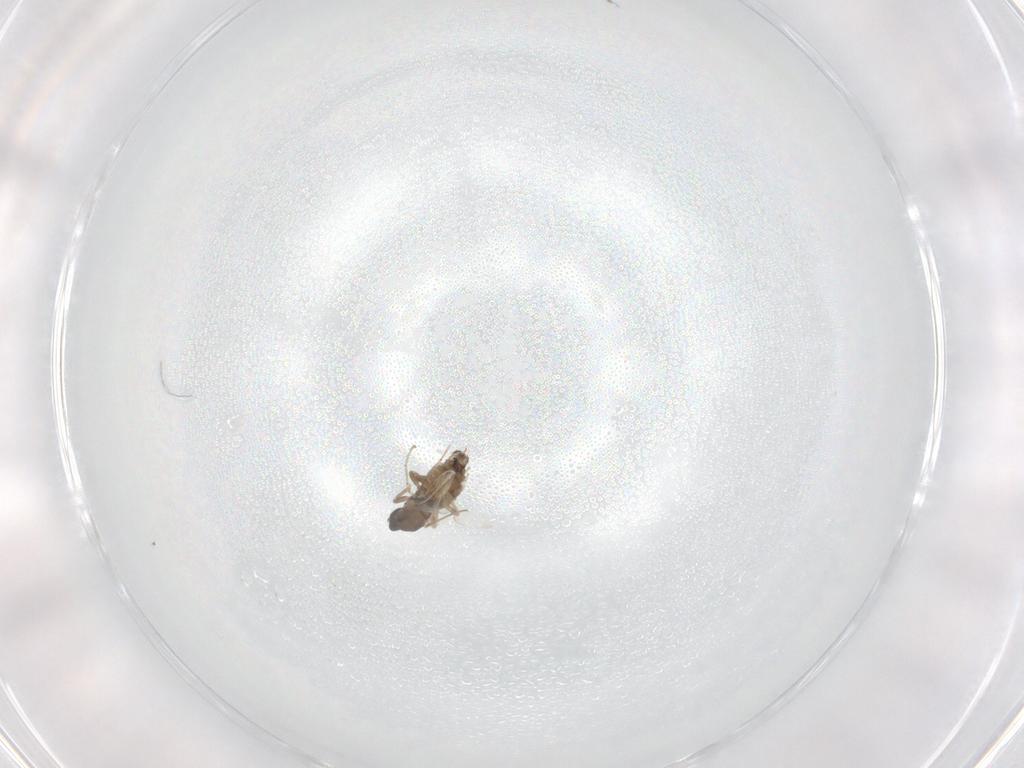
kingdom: Animalia
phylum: Arthropoda
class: Insecta
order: Diptera
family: Cecidomyiidae
